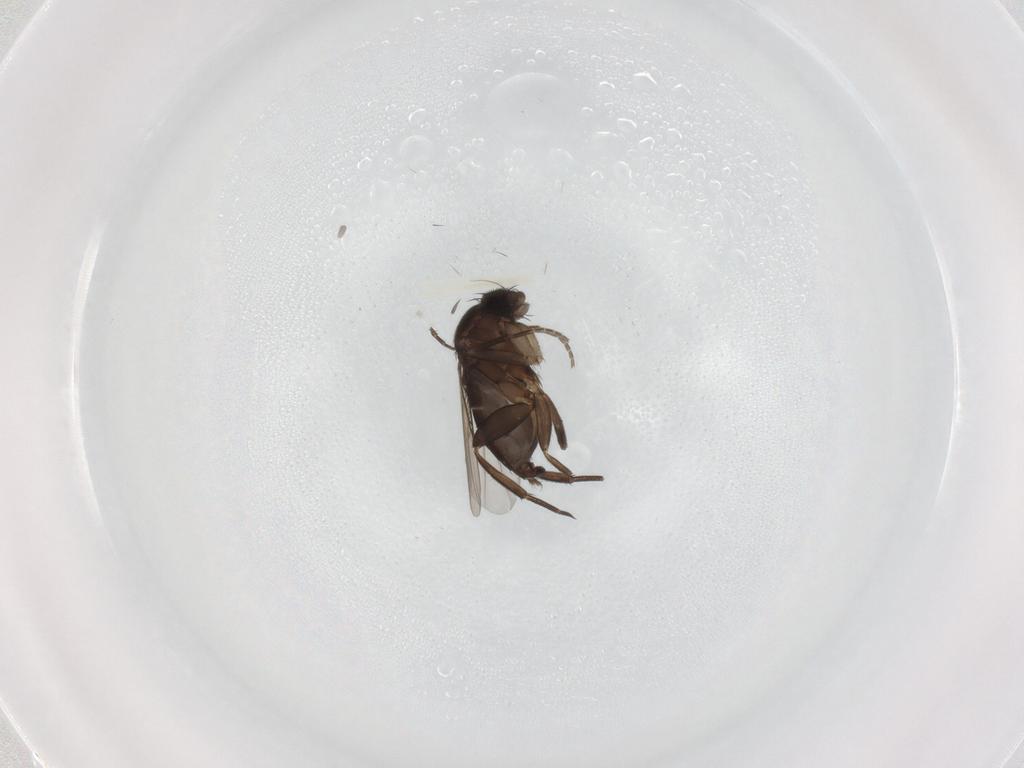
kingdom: Animalia
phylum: Arthropoda
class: Insecta
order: Diptera
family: Phoridae
